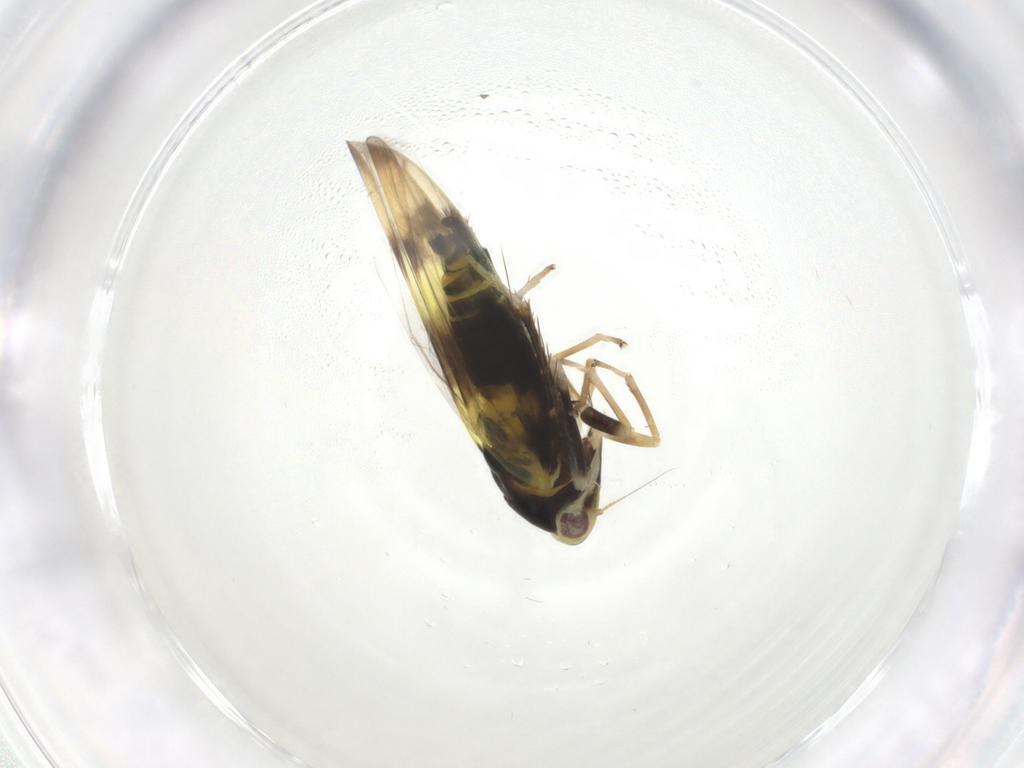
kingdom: Animalia
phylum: Arthropoda
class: Insecta
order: Hemiptera
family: Cicadellidae
